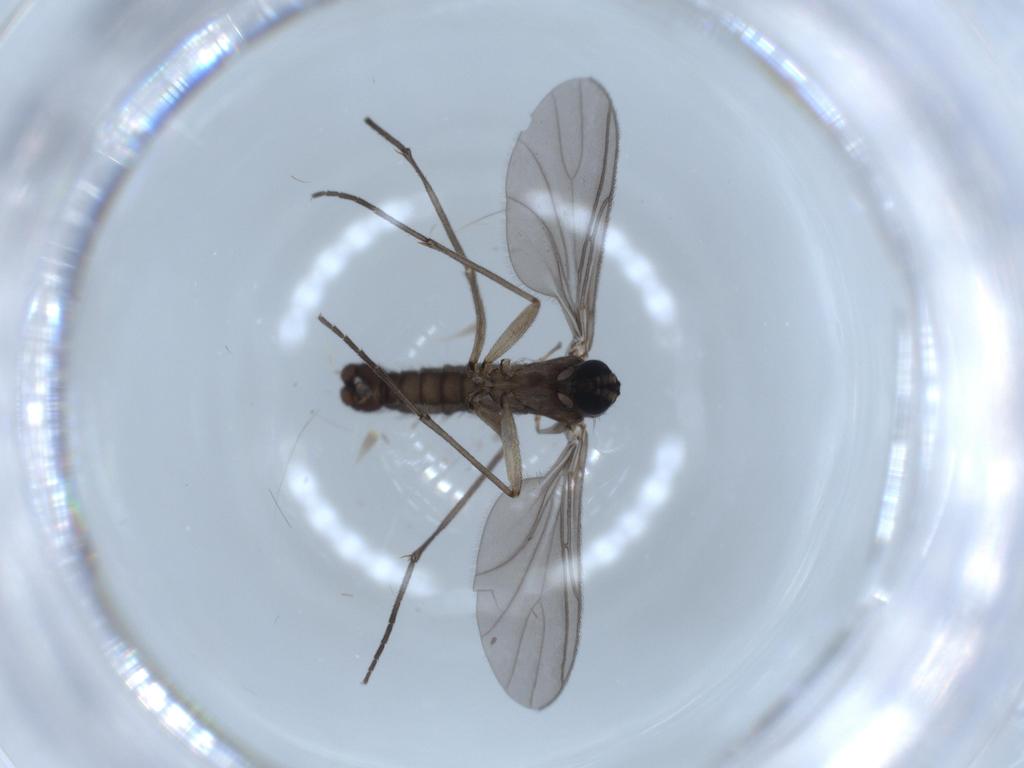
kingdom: Animalia
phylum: Arthropoda
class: Insecta
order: Diptera
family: Sciaridae
